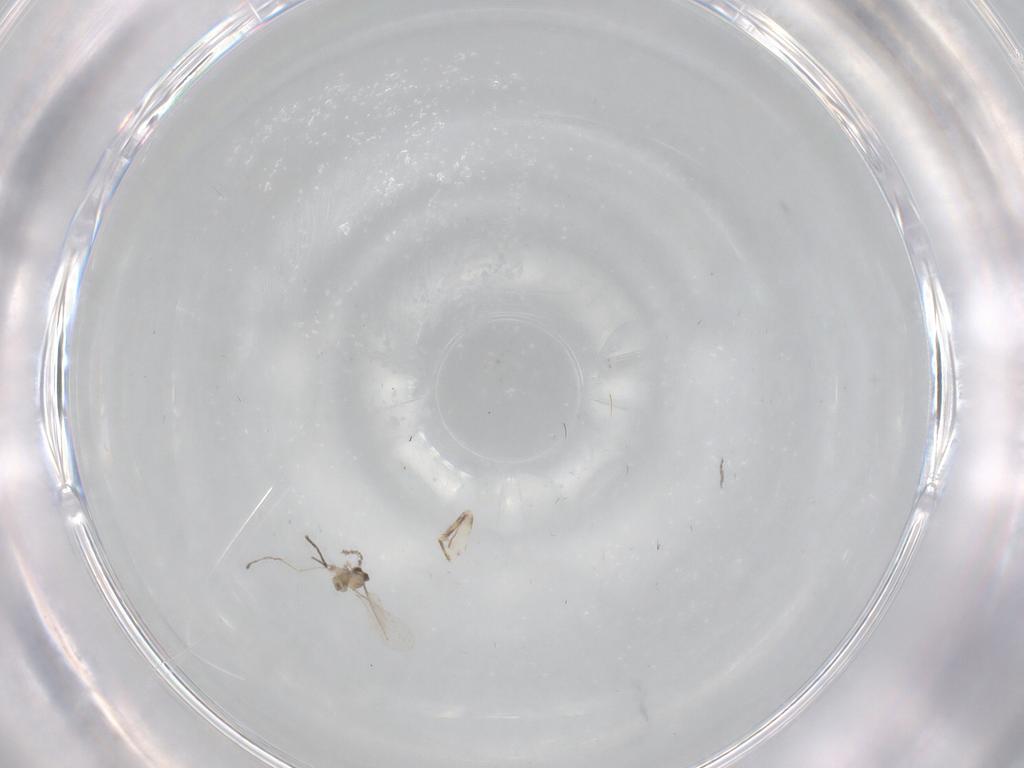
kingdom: Animalia
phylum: Arthropoda
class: Insecta
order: Diptera
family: Cecidomyiidae
